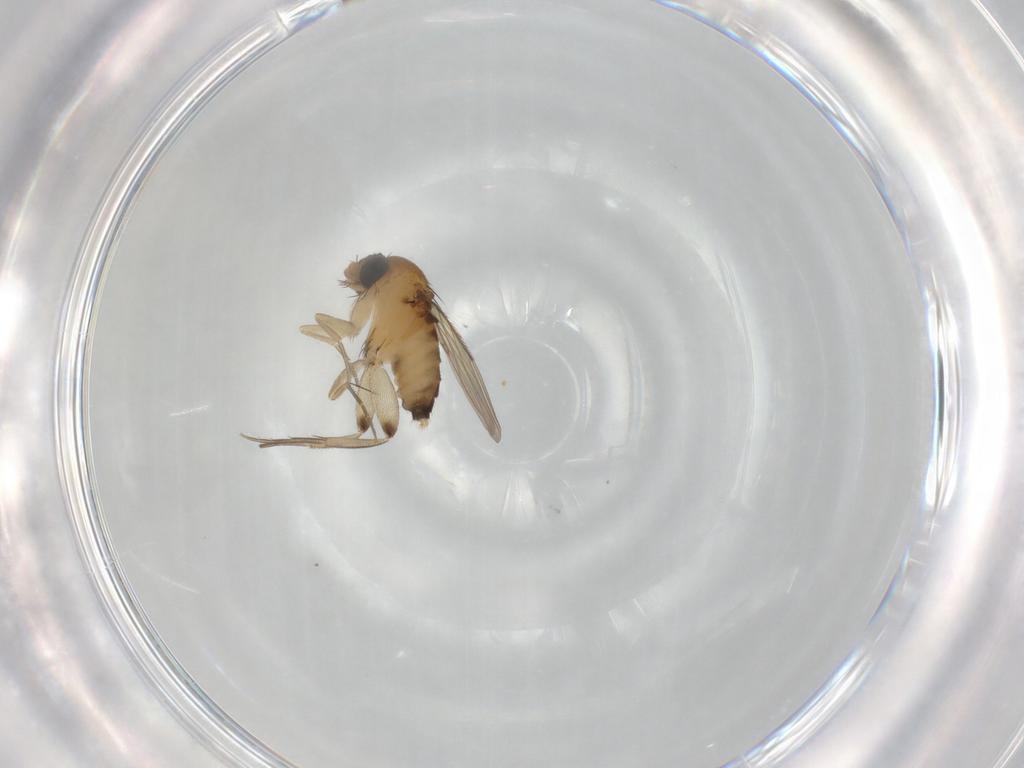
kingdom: Animalia
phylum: Arthropoda
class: Insecta
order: Diptera
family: Phoridae
